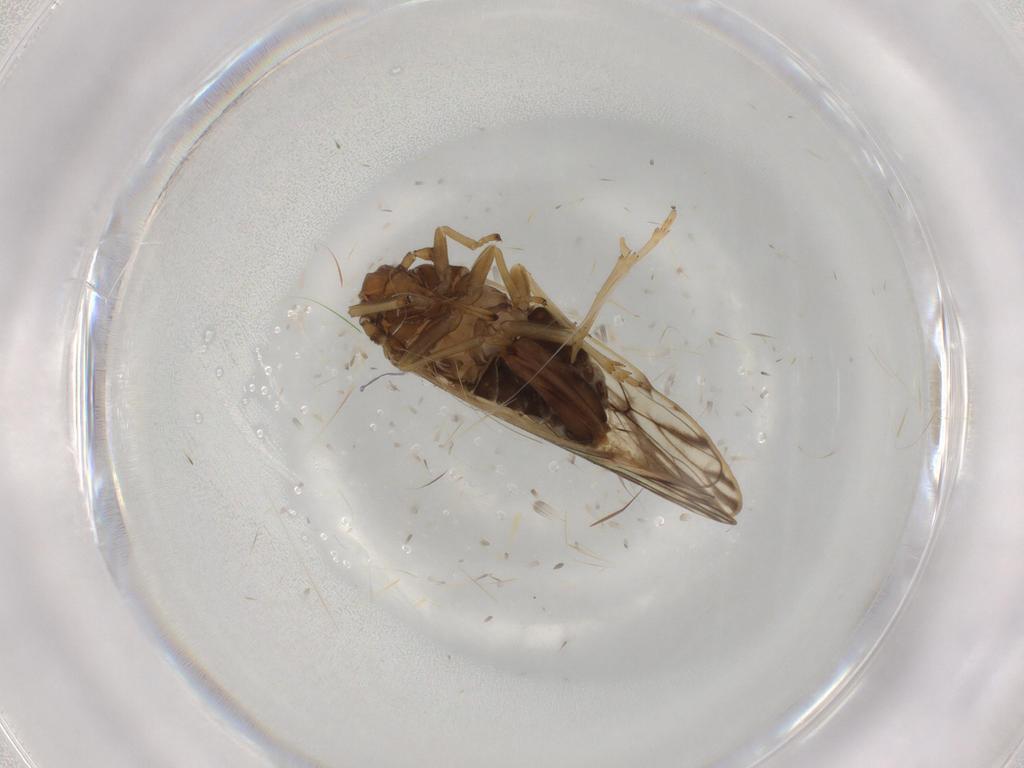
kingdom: Animalia
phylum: Arthropoda
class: Insecta
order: Hemiptera
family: Delphacidae
